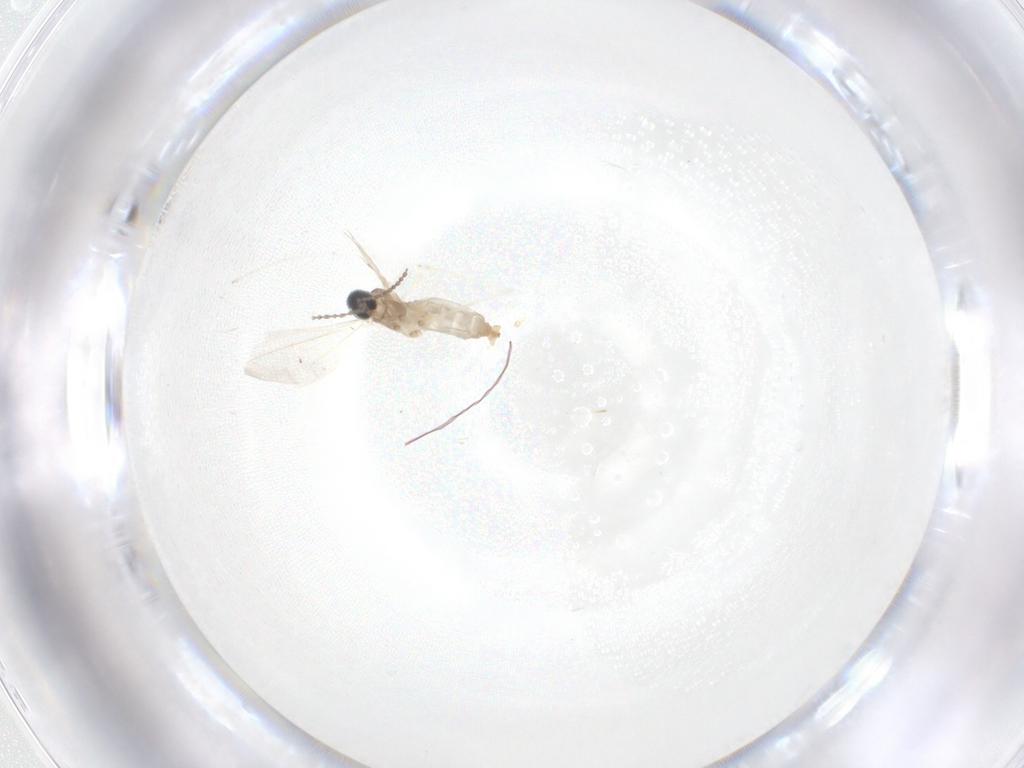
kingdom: Animalia
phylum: Arthropoda
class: Insecta
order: Diptera
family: Cecidomyiidae
